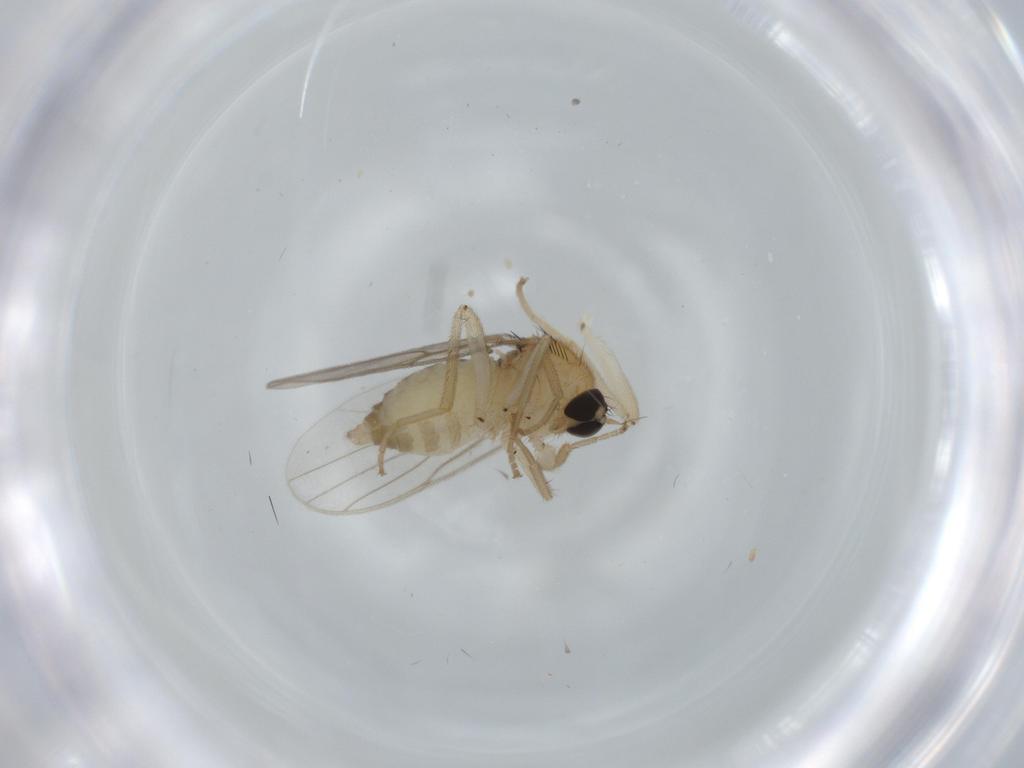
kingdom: Animalia
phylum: Arthropoda
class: Insecta
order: Diptera
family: Hybotidae
